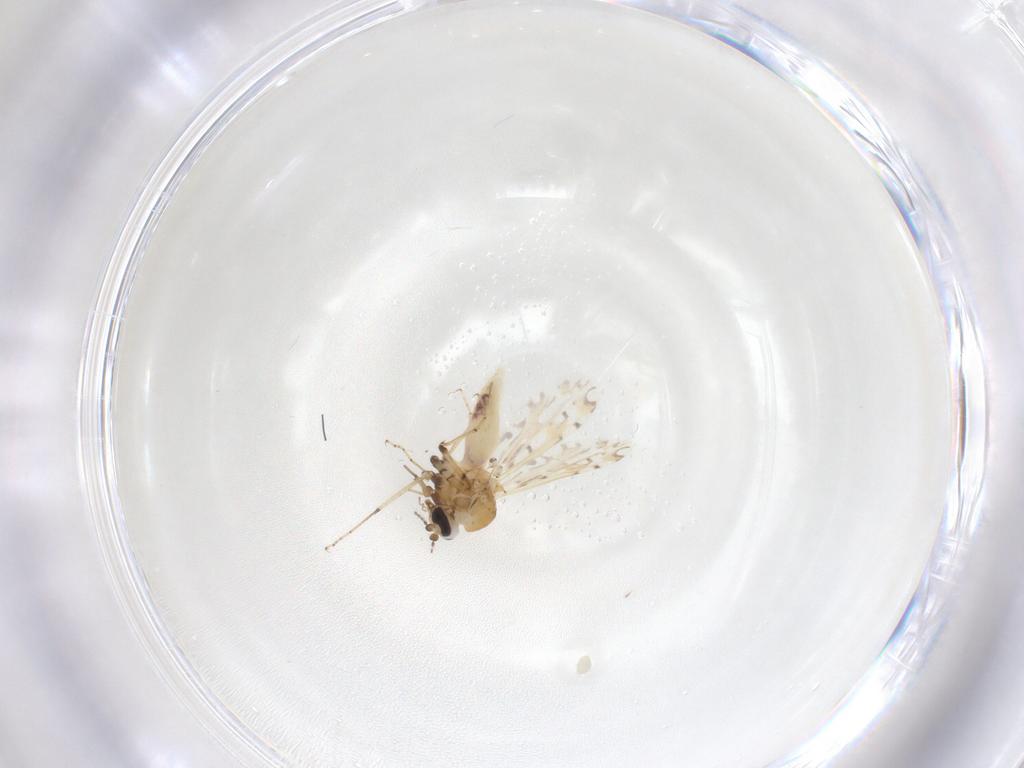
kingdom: Animalia
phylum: Arthropoda
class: Insecta
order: Diptera
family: Ceratopogonidae
